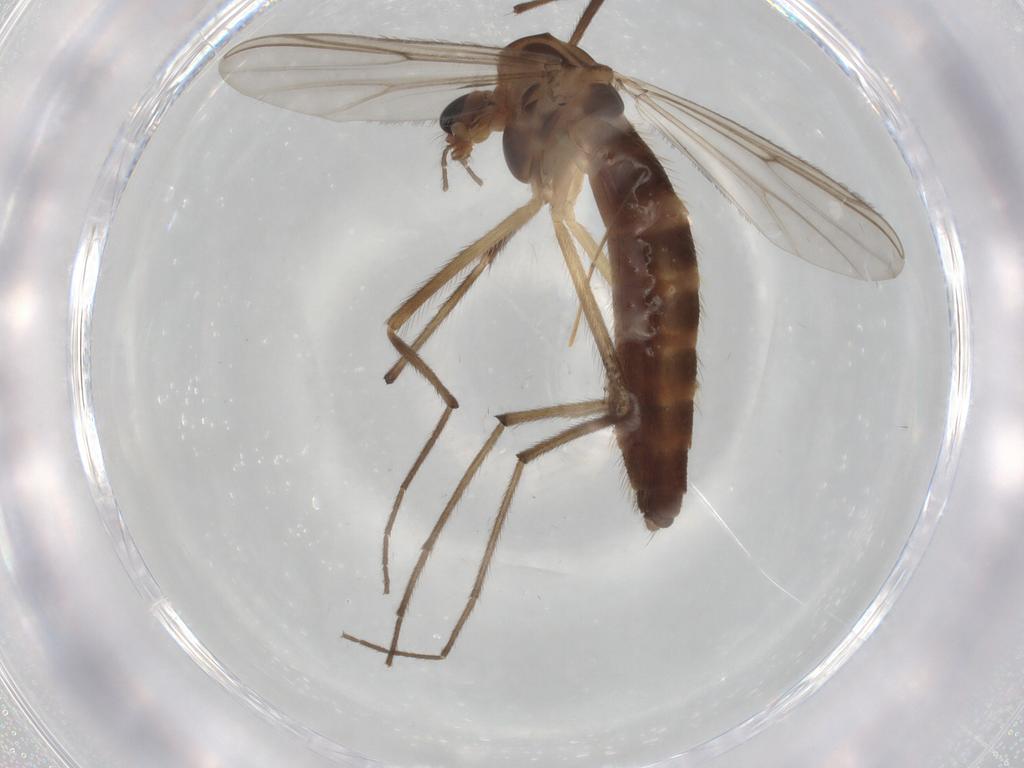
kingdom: Animalia
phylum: Arthropoda
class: Insecta
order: Diptera
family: Chironomidae
